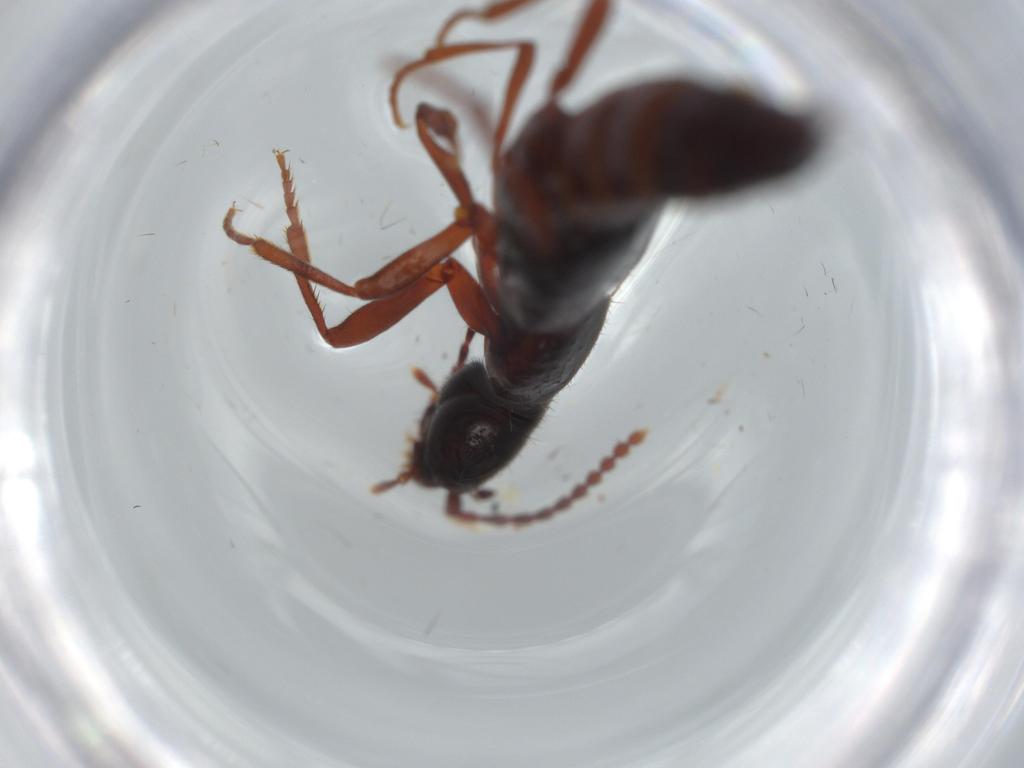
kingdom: Animalia
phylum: Arthropoda
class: Insecta
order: Coleoptera
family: Staphylinidae
